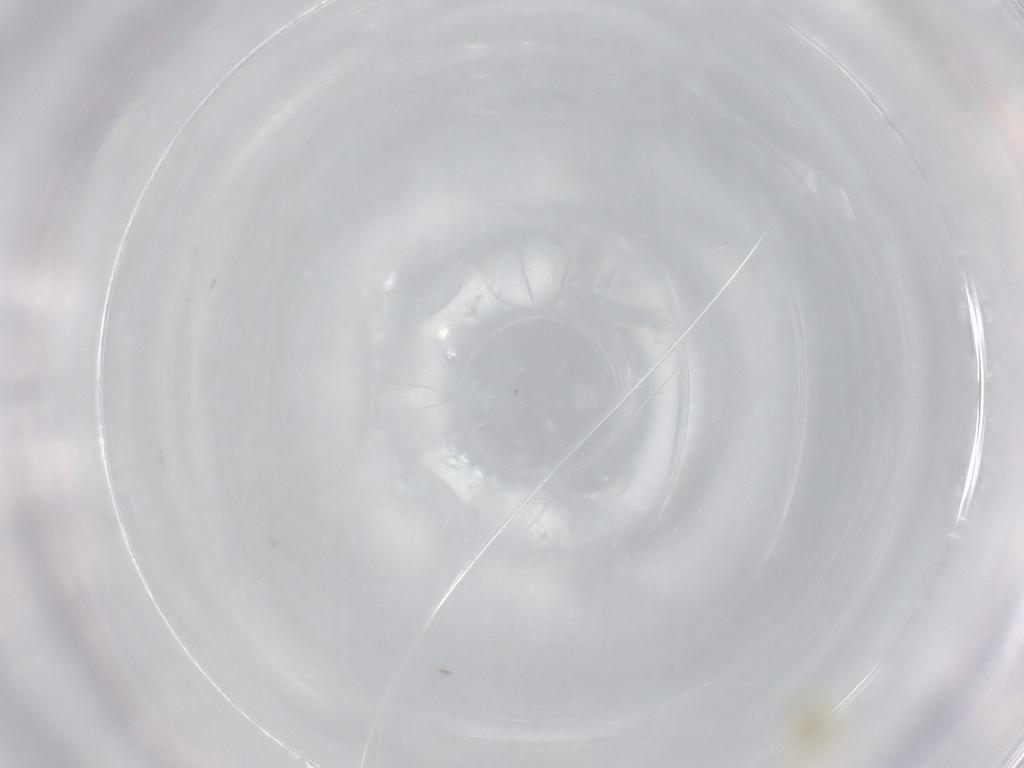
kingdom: Animalia
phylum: Arthropoda
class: Insecta
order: Hemiptera
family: Aleyrodidae
